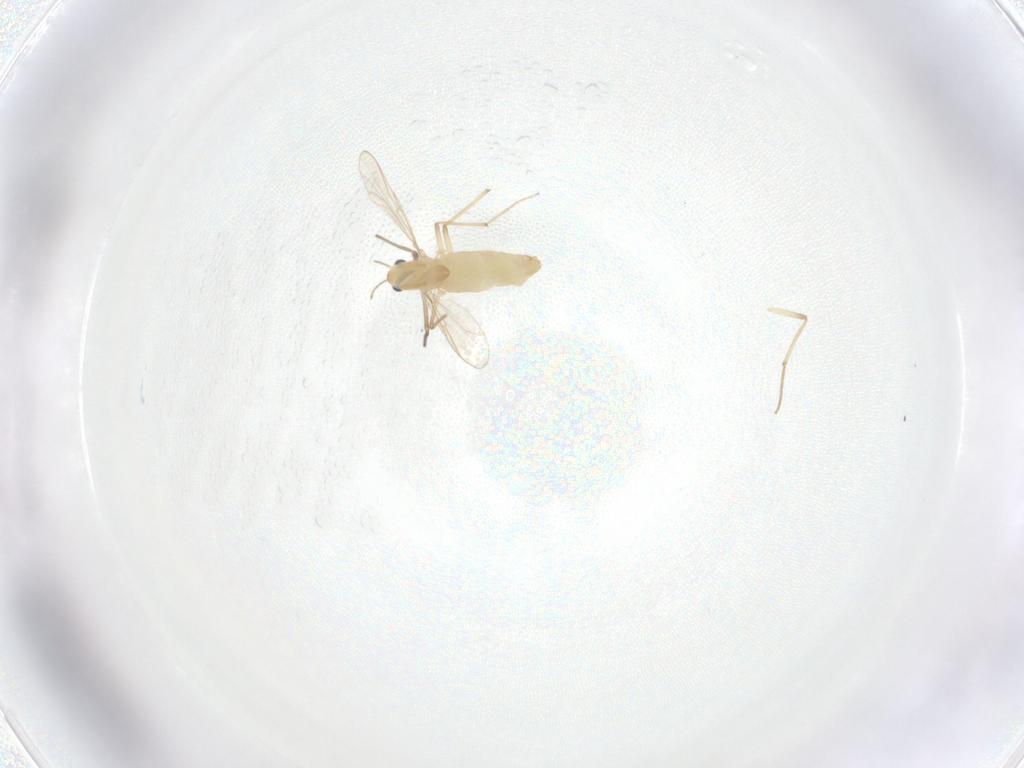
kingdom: Animalia
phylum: Arthropoda
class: Insecta
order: Diptera
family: Chironomidae
